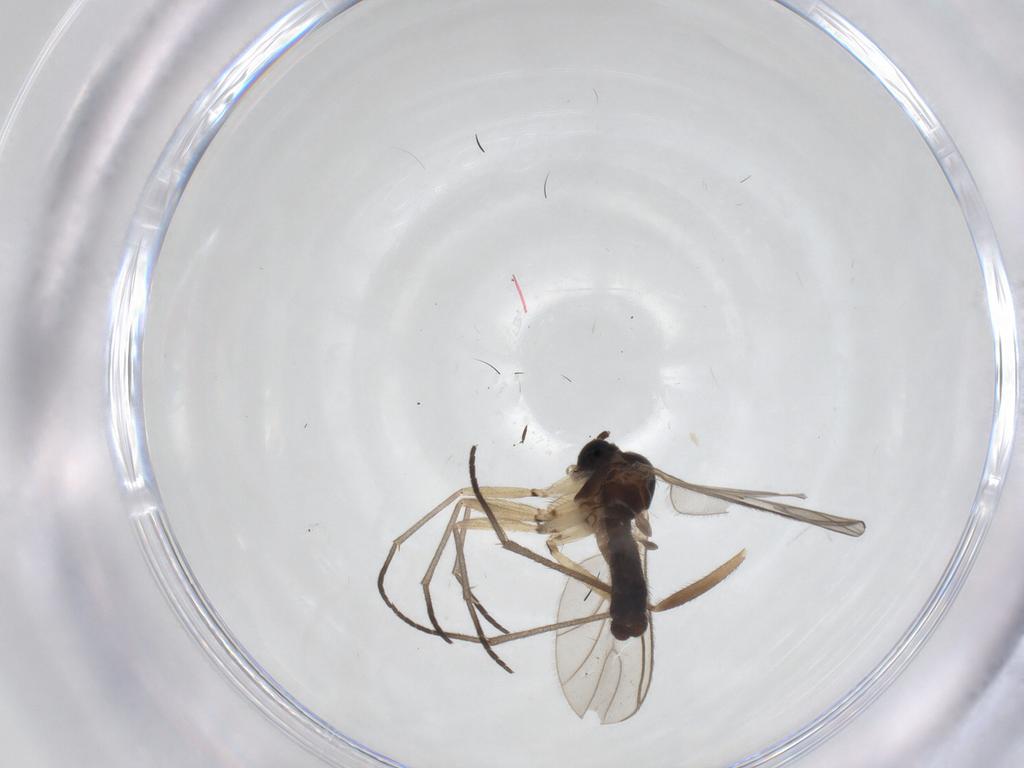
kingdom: Animalia
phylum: Arthropoda
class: Insecta
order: Diptera
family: Sciaridae
